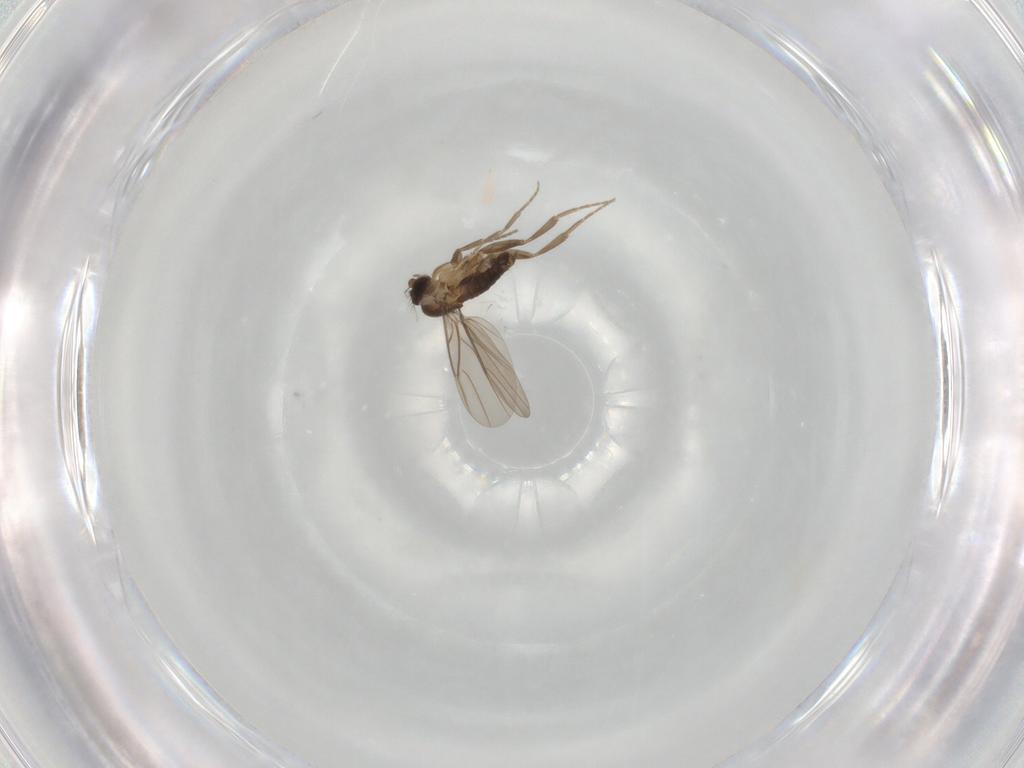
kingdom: Animalia
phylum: Arthropoda
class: Insecta
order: Diptera
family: Phoridae
